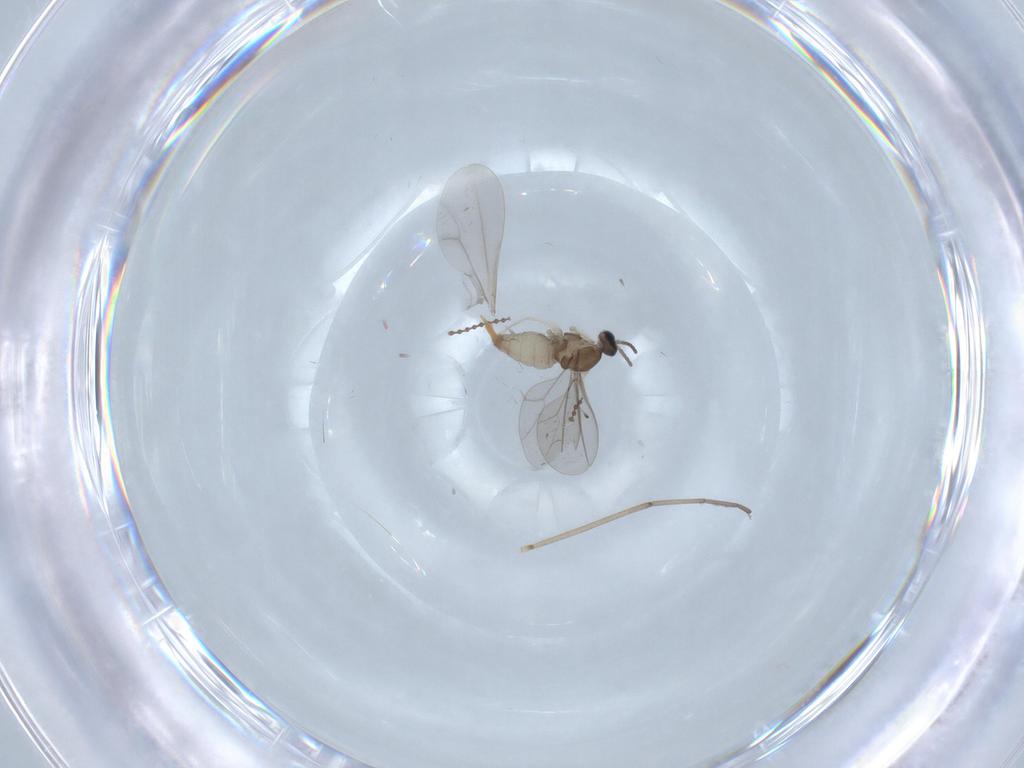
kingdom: Animalia
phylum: Arthropoda
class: Insecta
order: Diptera
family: Cecidomyiidae
